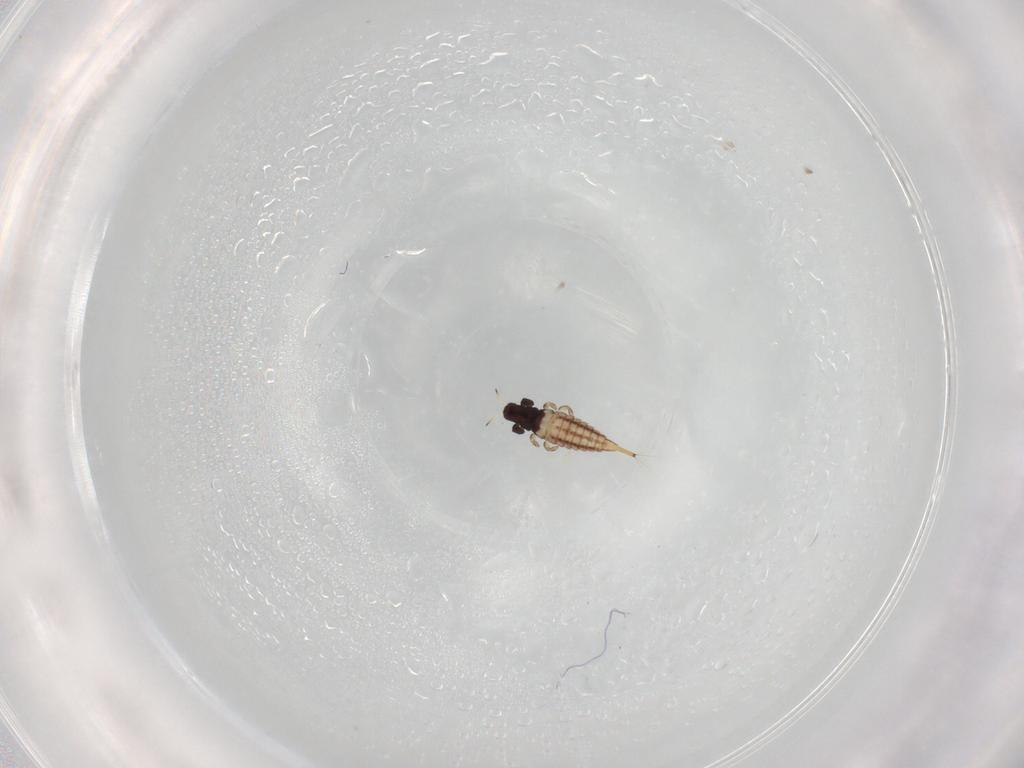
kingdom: Animalia
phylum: Arthropoda
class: Insecta
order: Thysanoptera
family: Phlaeothripidae
